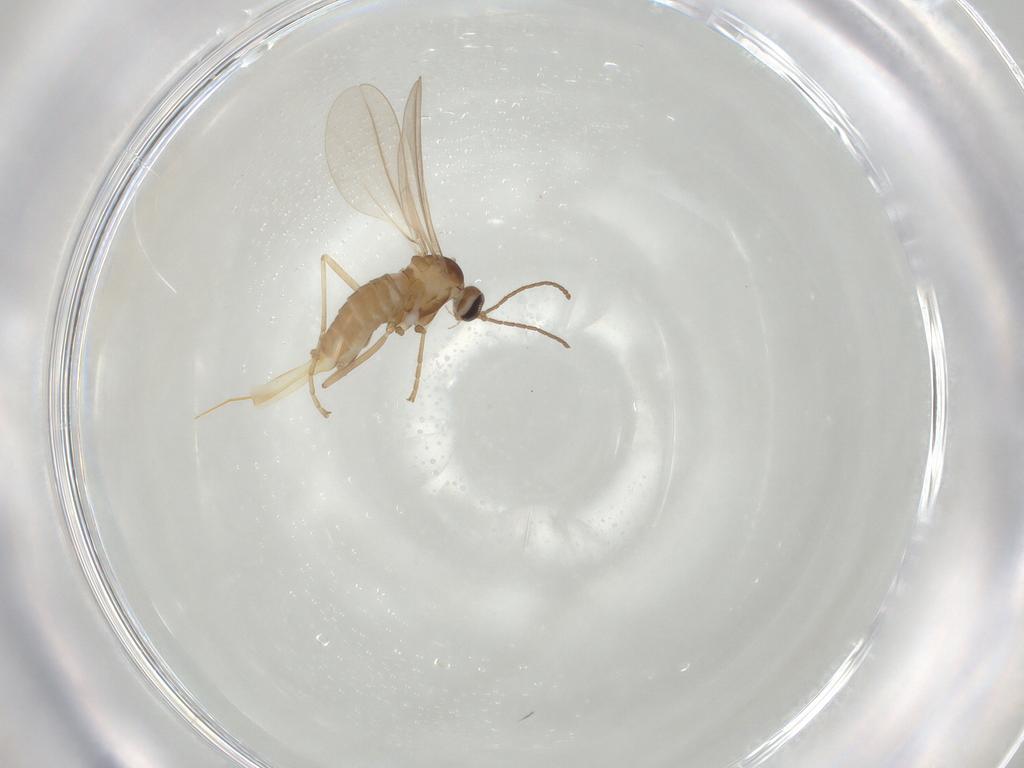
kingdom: Animalia
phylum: Arthropoda
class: Insecta
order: Diptera
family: Cecidomyiidae
